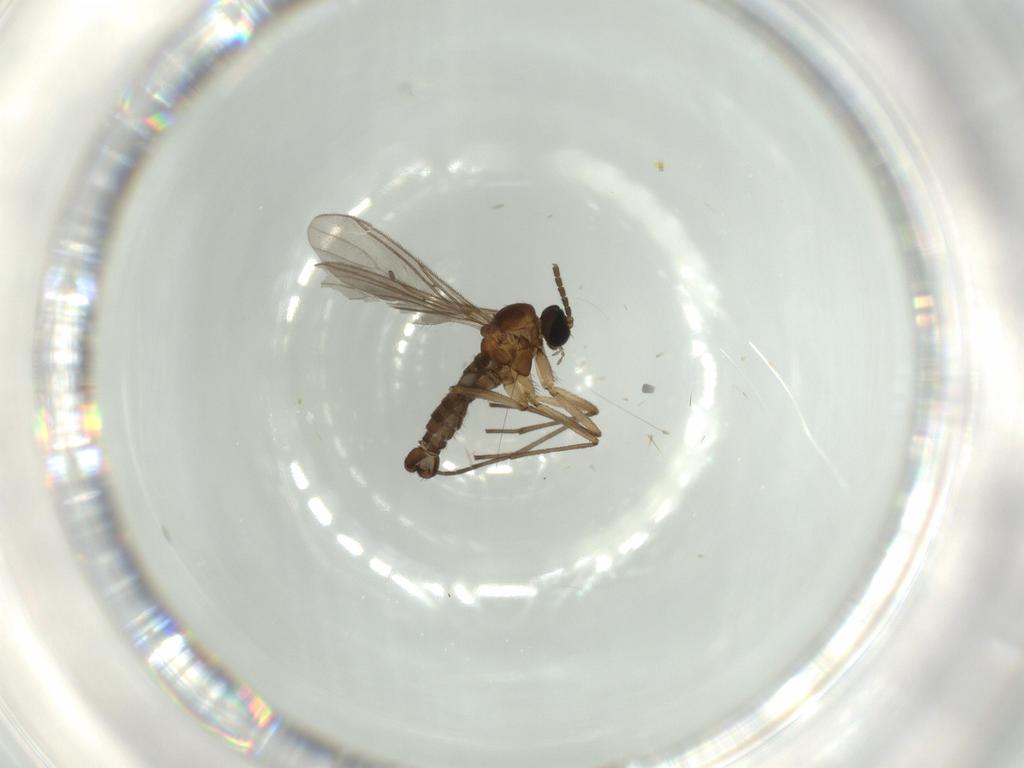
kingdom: Animalia
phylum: Arthropoda
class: Insecta
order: Diptera
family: Sciaridae
